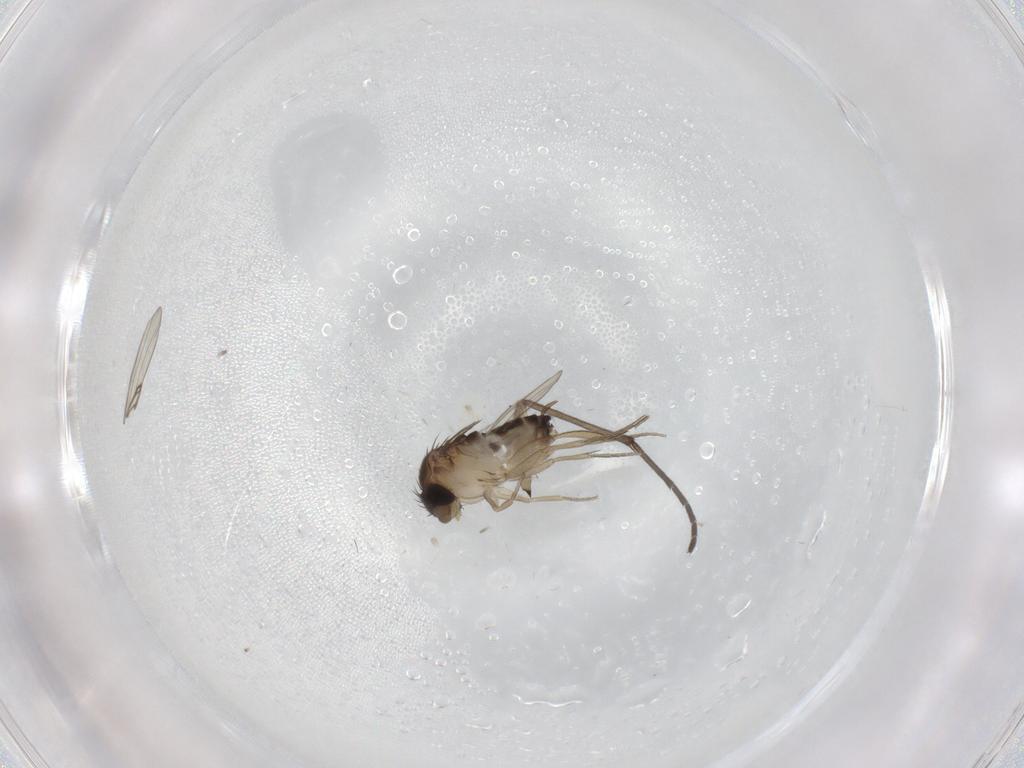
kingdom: Animalia
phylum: Arthropoda
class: Insecta
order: Diptera
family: Sciaridae
